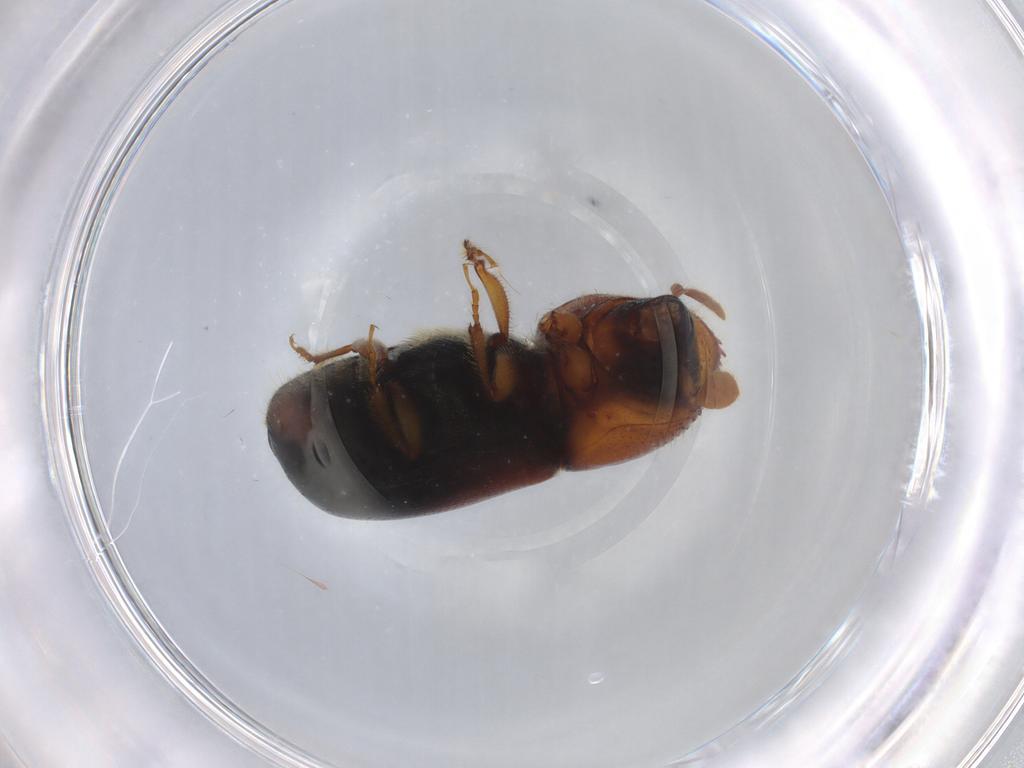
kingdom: Animalia
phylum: Arthropoda
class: Insecta
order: Coleoptera
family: Curculionidae
